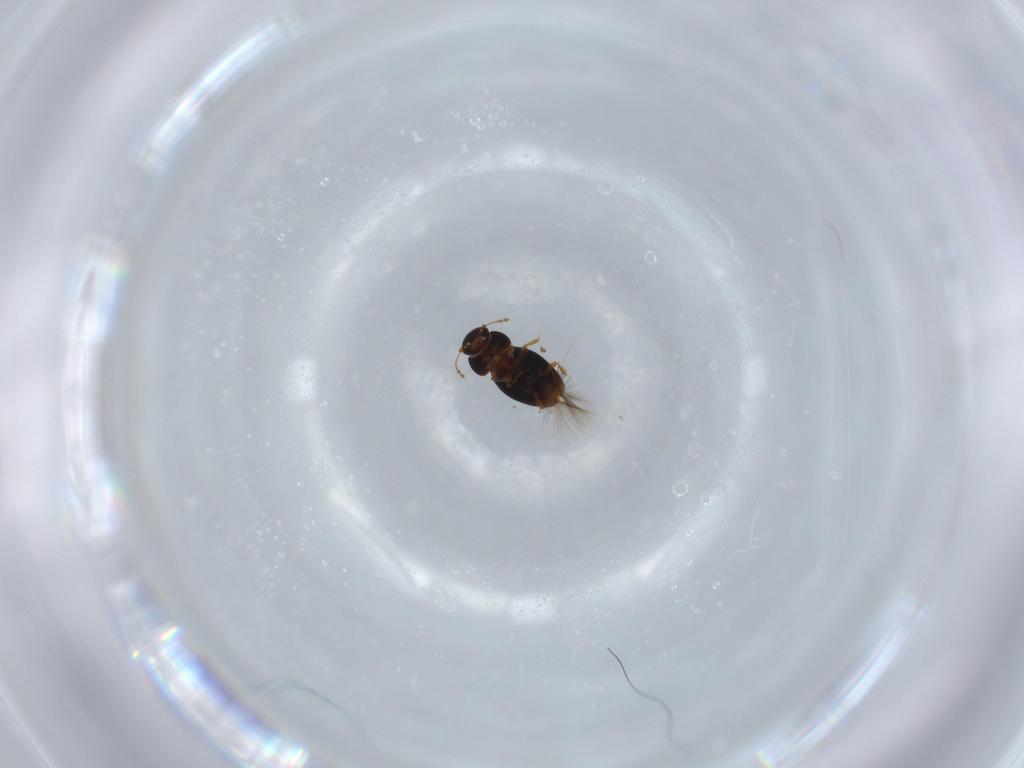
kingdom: Animalia
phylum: Arthropoda
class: Insecta
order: Coleoptera
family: Ptiliidae
